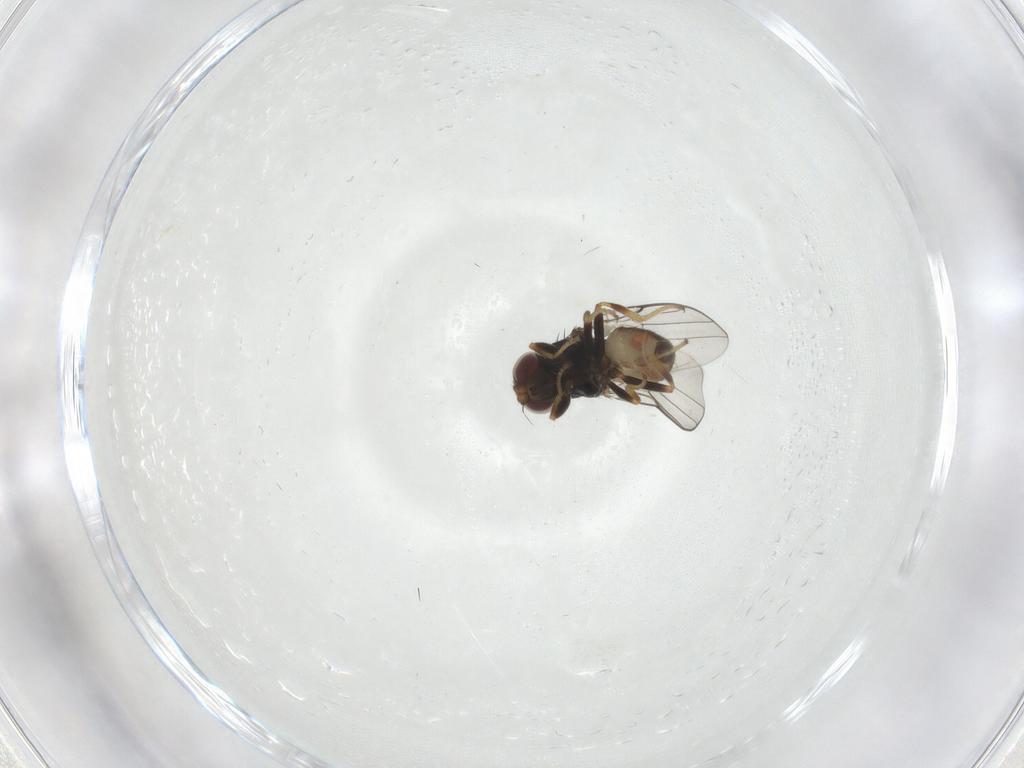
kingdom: Animalia
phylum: Arthropoda
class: Insecta
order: Diptera
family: Chloropidae
